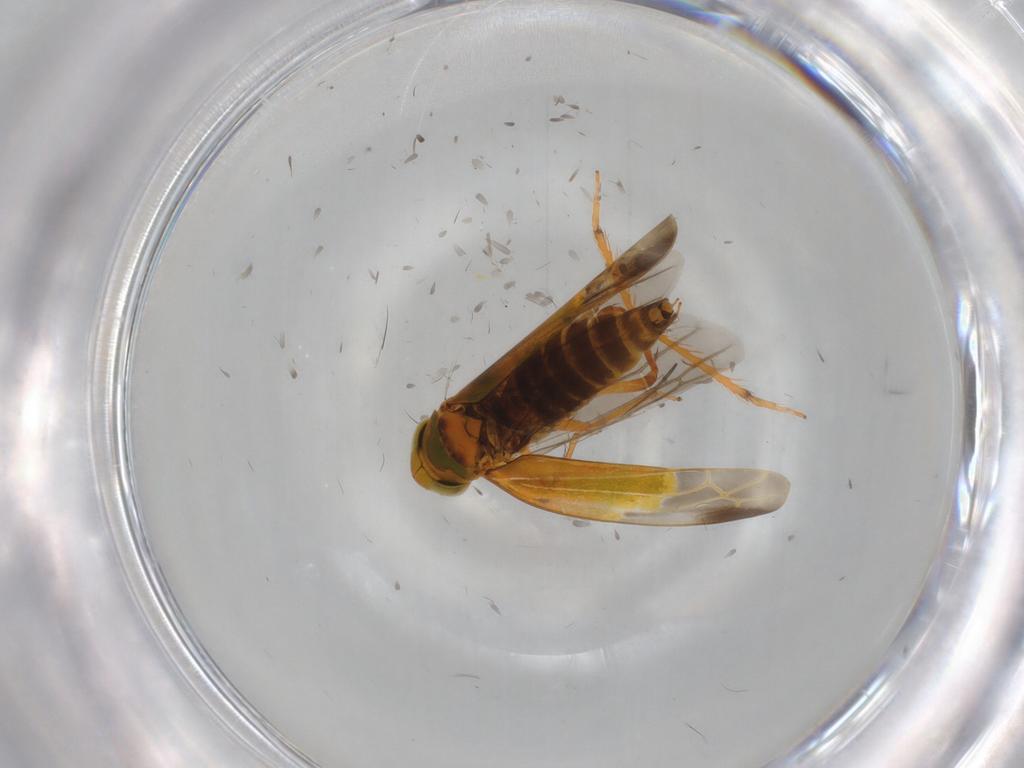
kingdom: Animalia
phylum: Arthropoda
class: Insecta
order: Hemiptera
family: Cicadellidae
